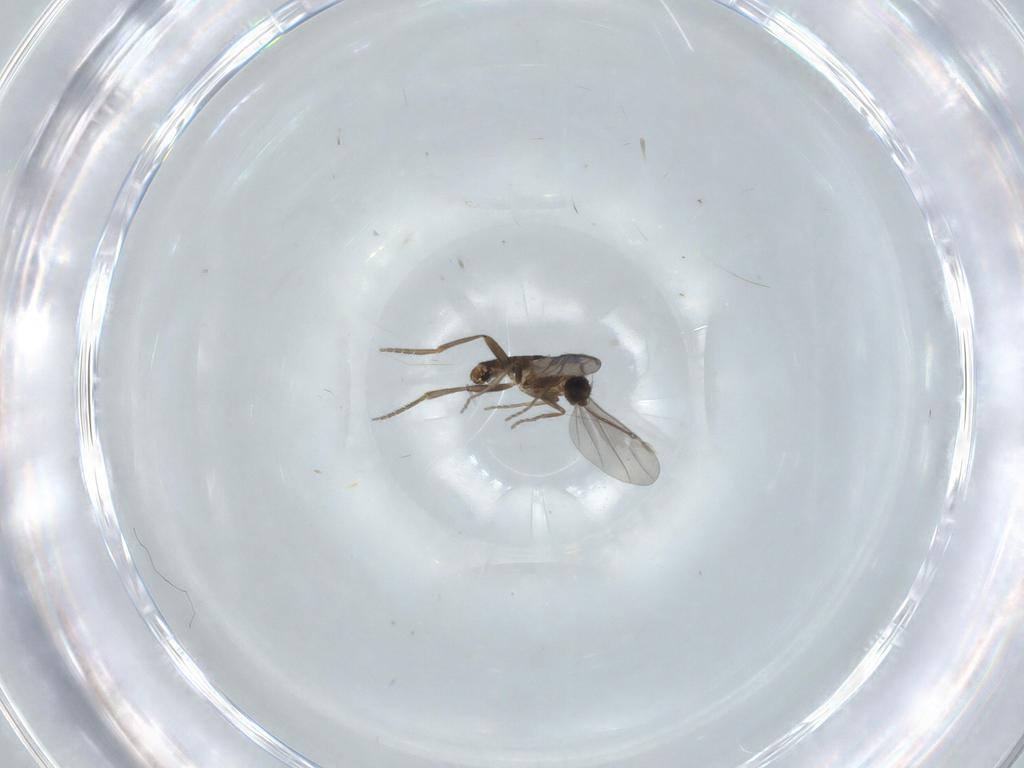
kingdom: Animalia
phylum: Arthropoda
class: Insecta
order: Diptera
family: Phoridae
